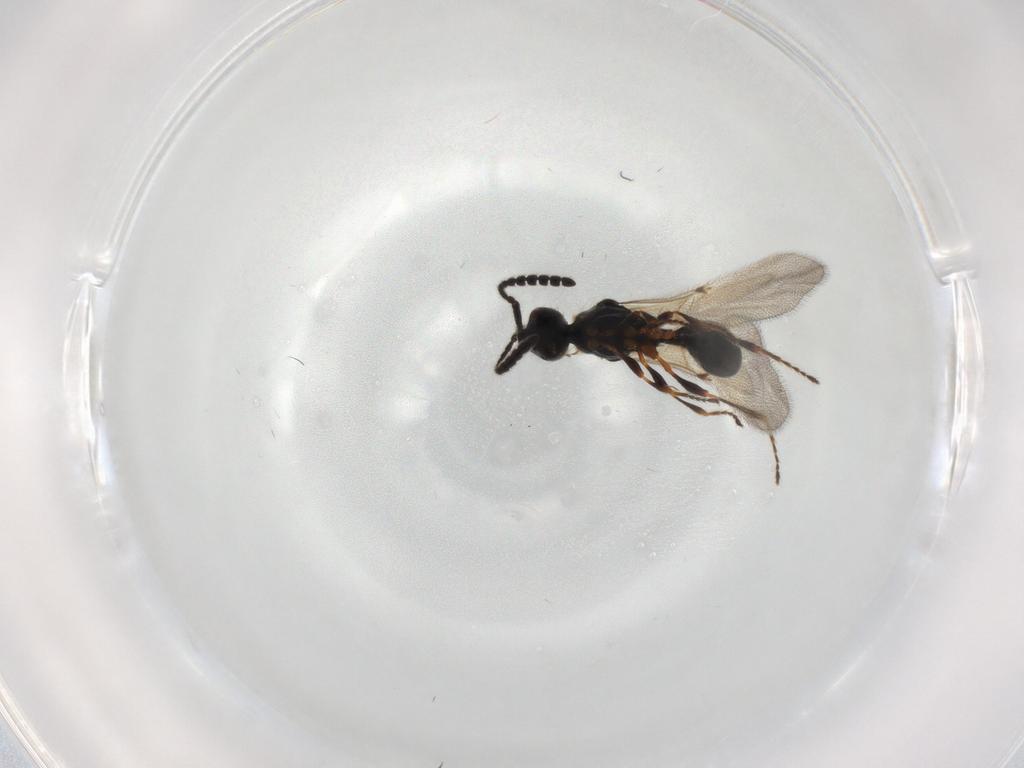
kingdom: Animalia
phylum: Arthropoda
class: Insecta
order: Hymenoptera
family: Diapriidae
